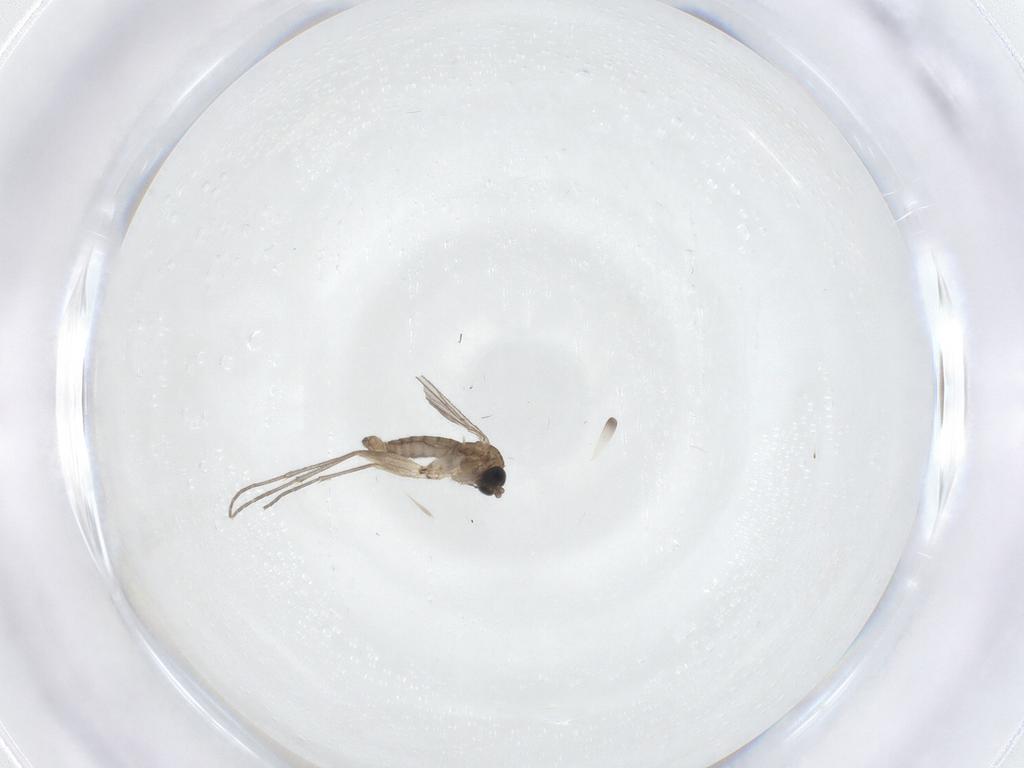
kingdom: Animalia
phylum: Arthropoda
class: Insecta
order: Diptera
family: Sciaridae
